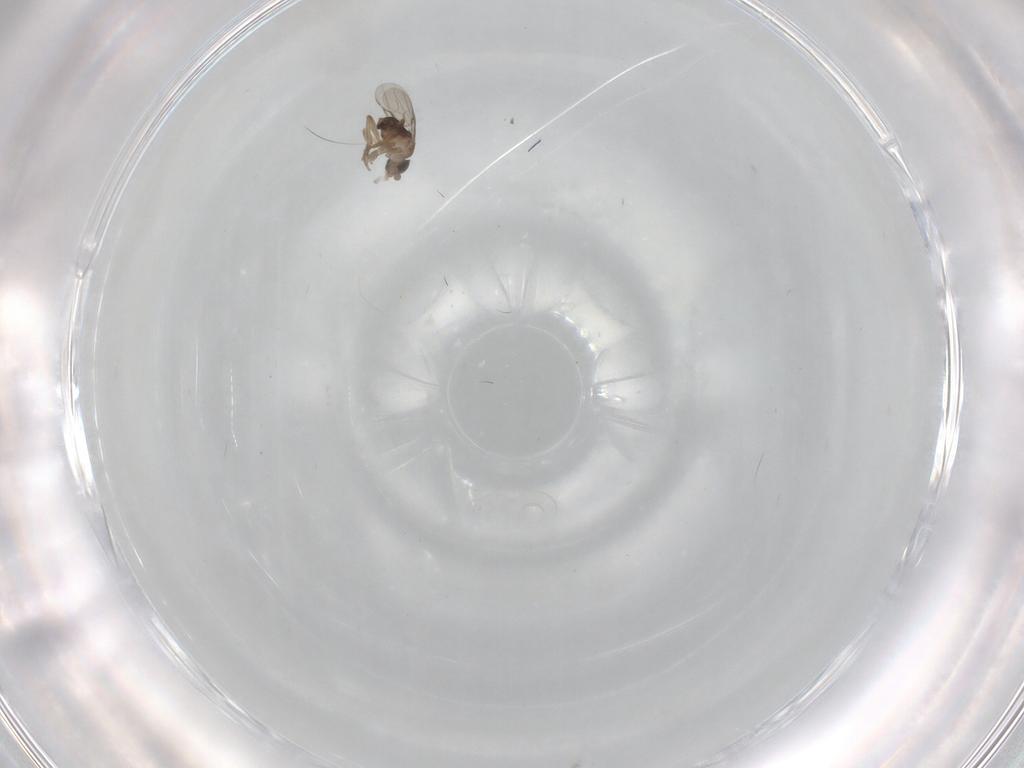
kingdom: Animalia
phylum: Arthropoda
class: Insecta
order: Diptera
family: Phoridae
